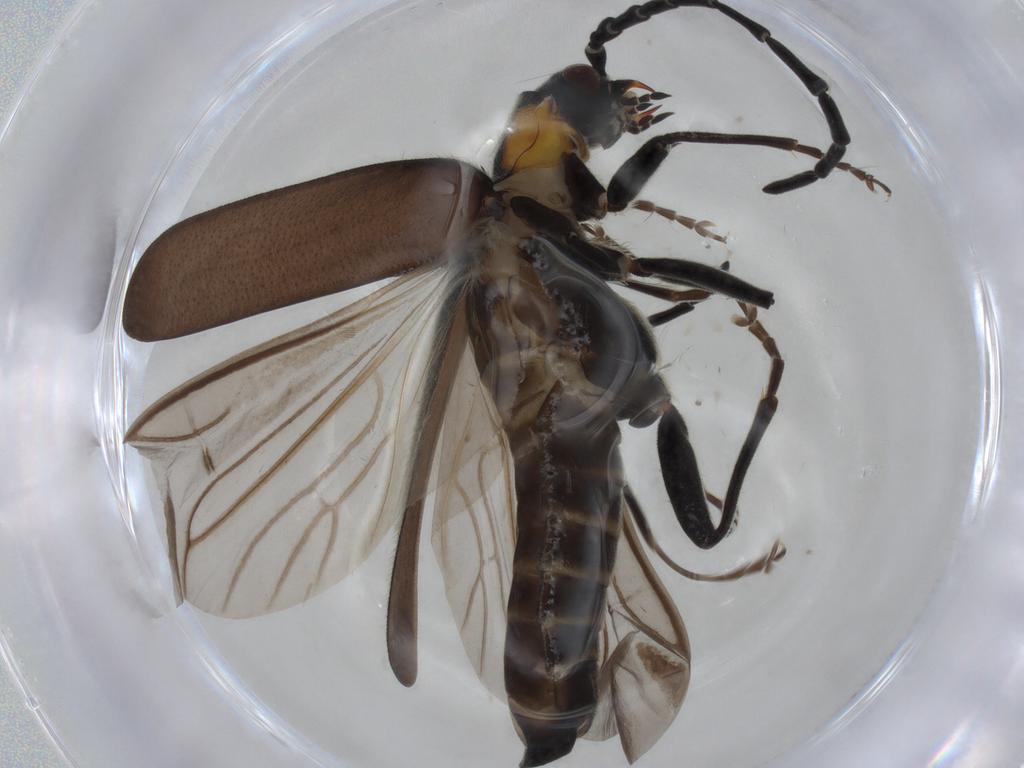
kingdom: Animalia
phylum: Arthropoda
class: Insecta
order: Coleoptera
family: Cantharidae
